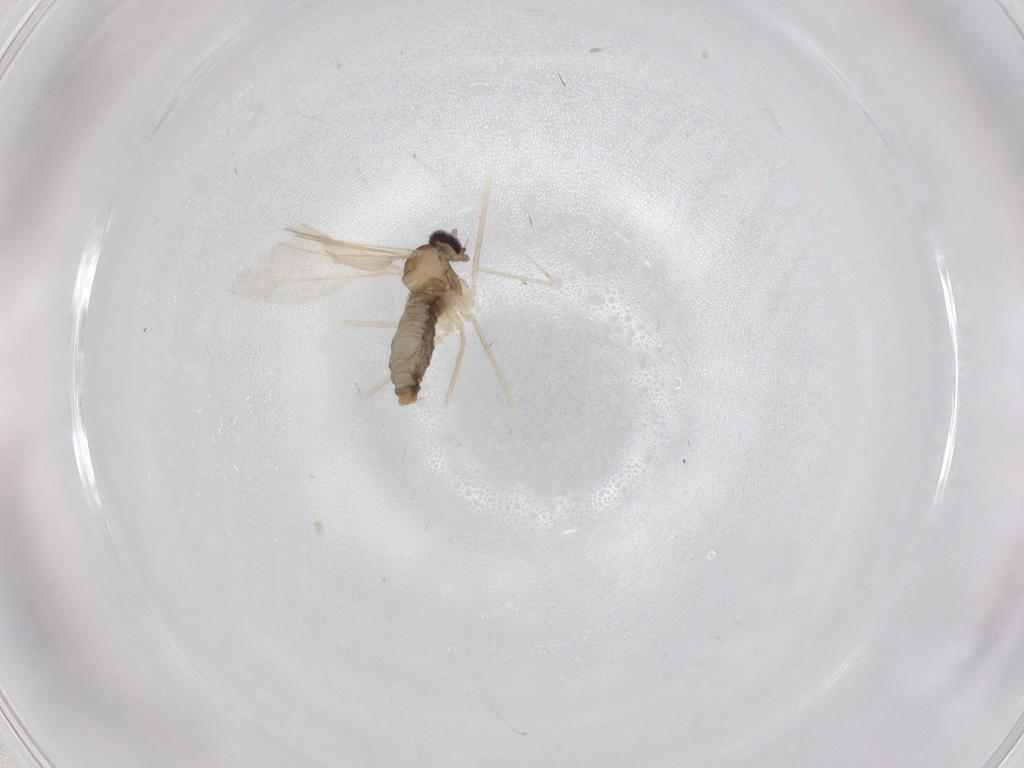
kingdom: Animalia
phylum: Arthropoda
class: Insecta
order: Diptera
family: Cecidomyiidae
